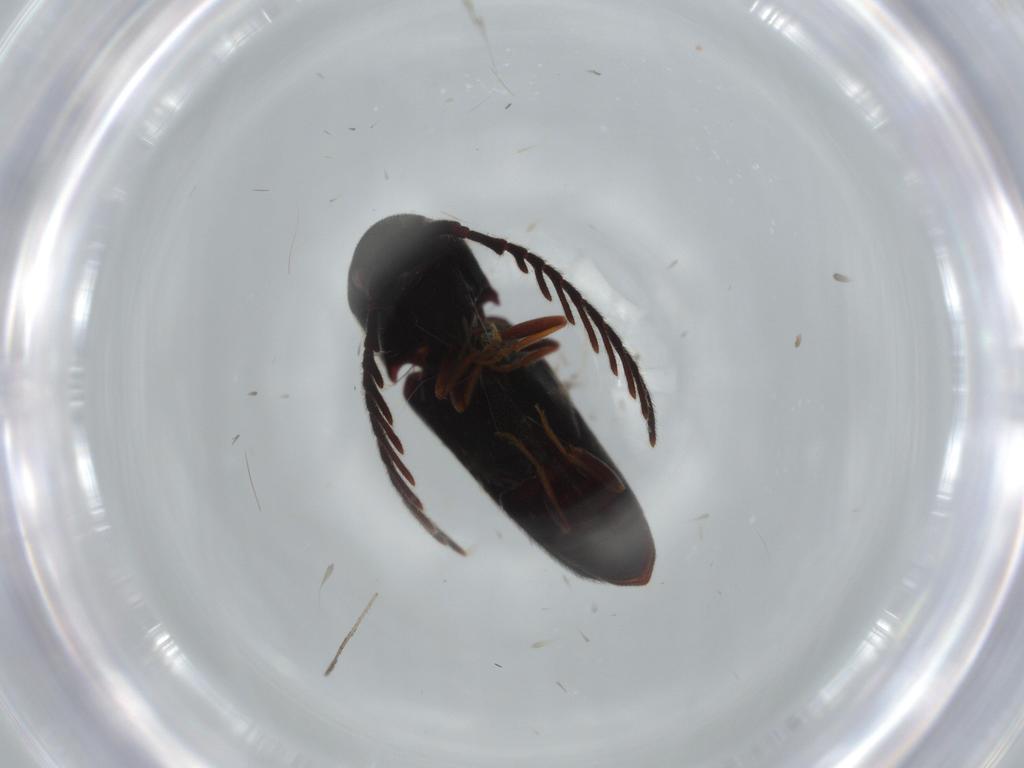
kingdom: Animalia
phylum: Arthropoda
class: Insecta
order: Coleoptera
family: Eucnemidae
